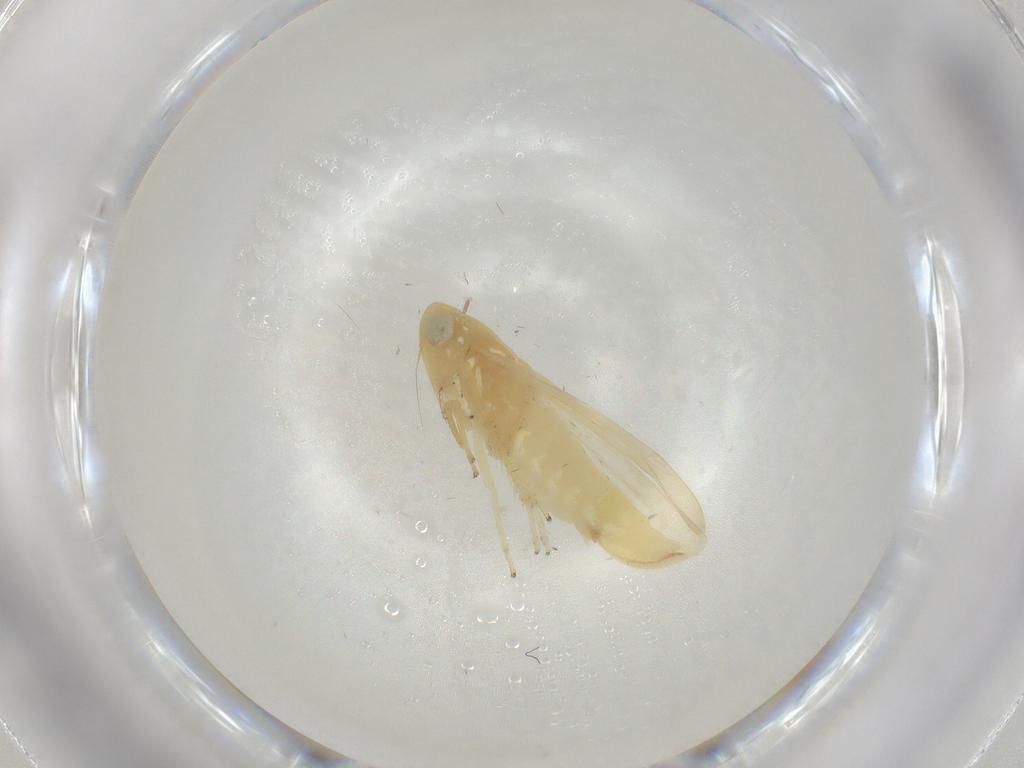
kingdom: Animalia
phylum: Arthropoda
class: Insecta
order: Hemiptera
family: Cicadellidae
